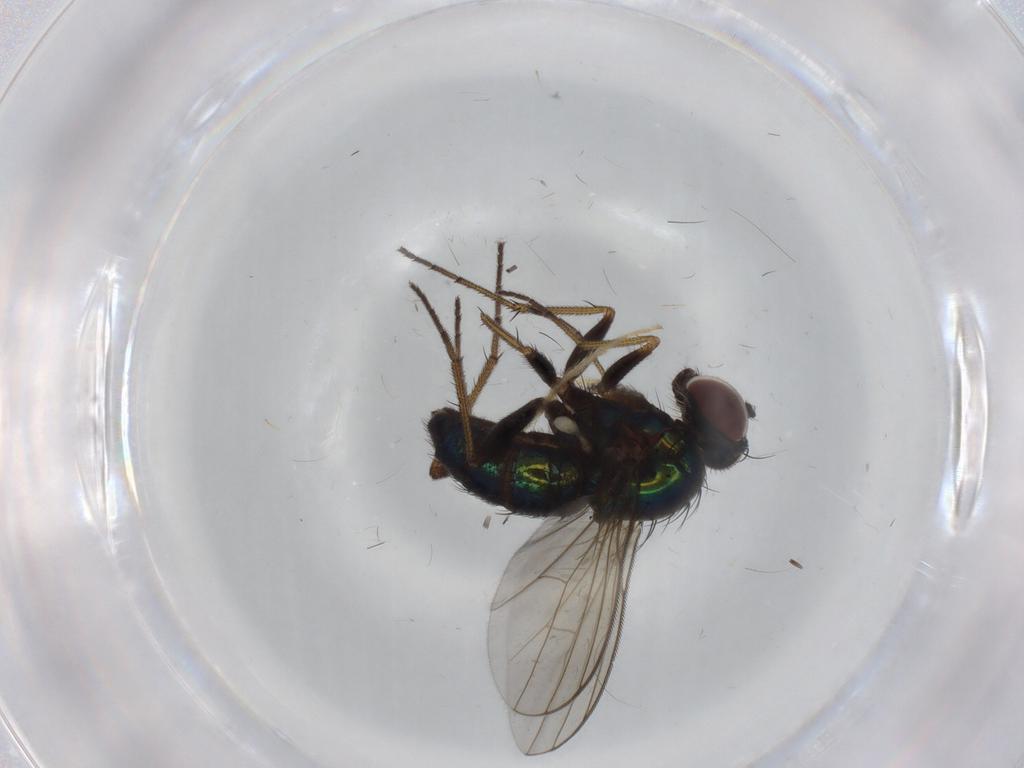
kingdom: Animalia
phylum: Arthropoda
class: Insecta
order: Diptera
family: Dolichopodidae
